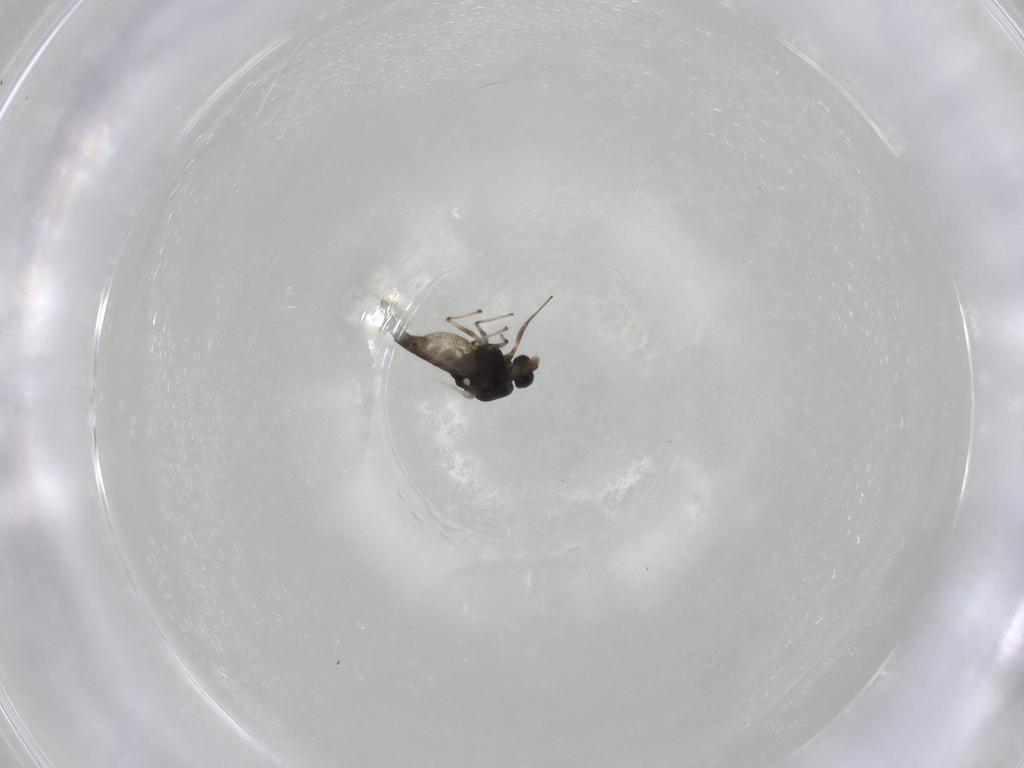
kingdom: Animalia
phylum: Arthropoda
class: Insecta
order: Diptera
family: Chironomidae
